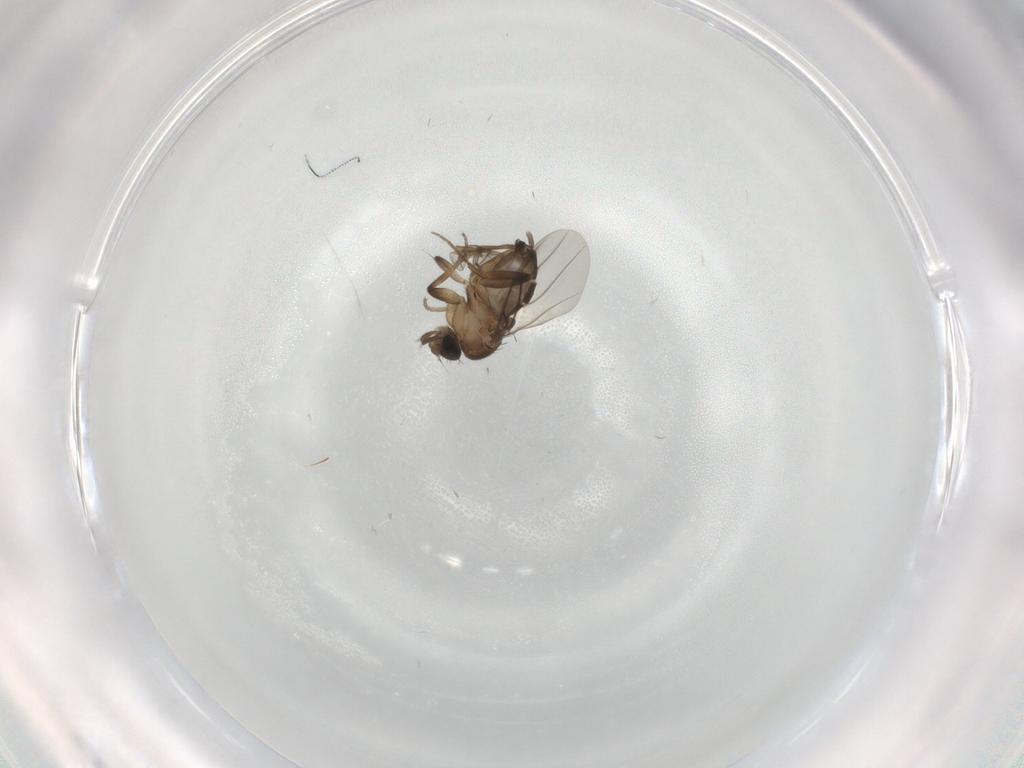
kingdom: Animalia
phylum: Arthropoda
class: Insecta
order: Diptera
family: Phoridae
